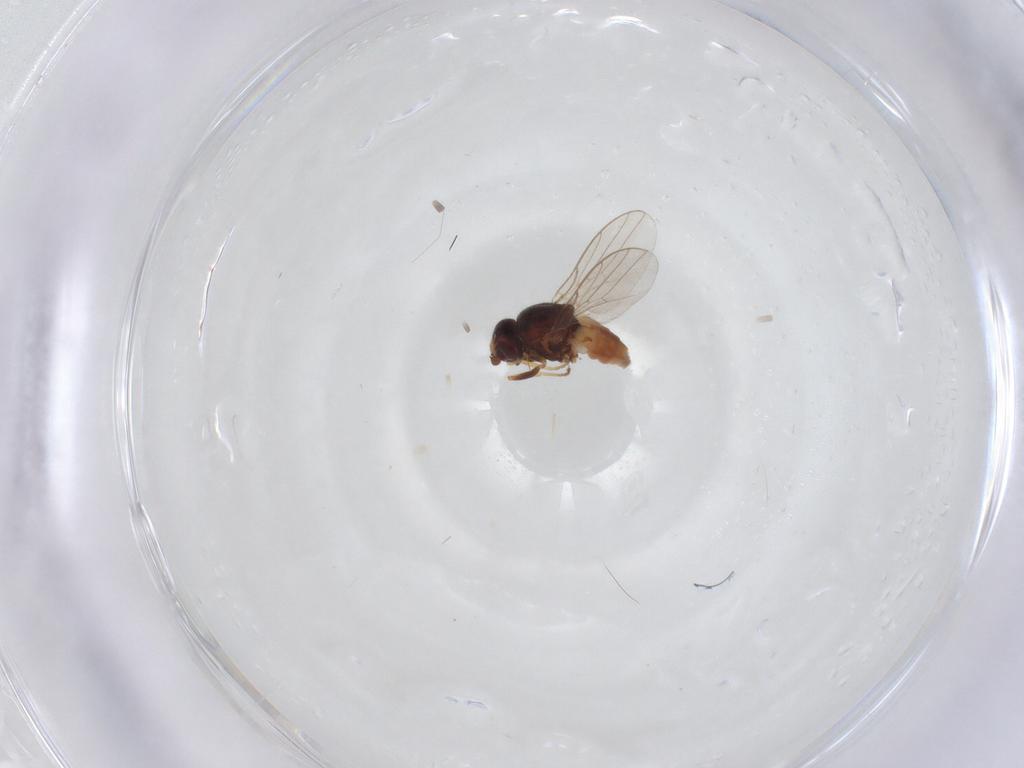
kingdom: Animalia
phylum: Arthropoda
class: Insecta
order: Diptera
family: Chloropidae
